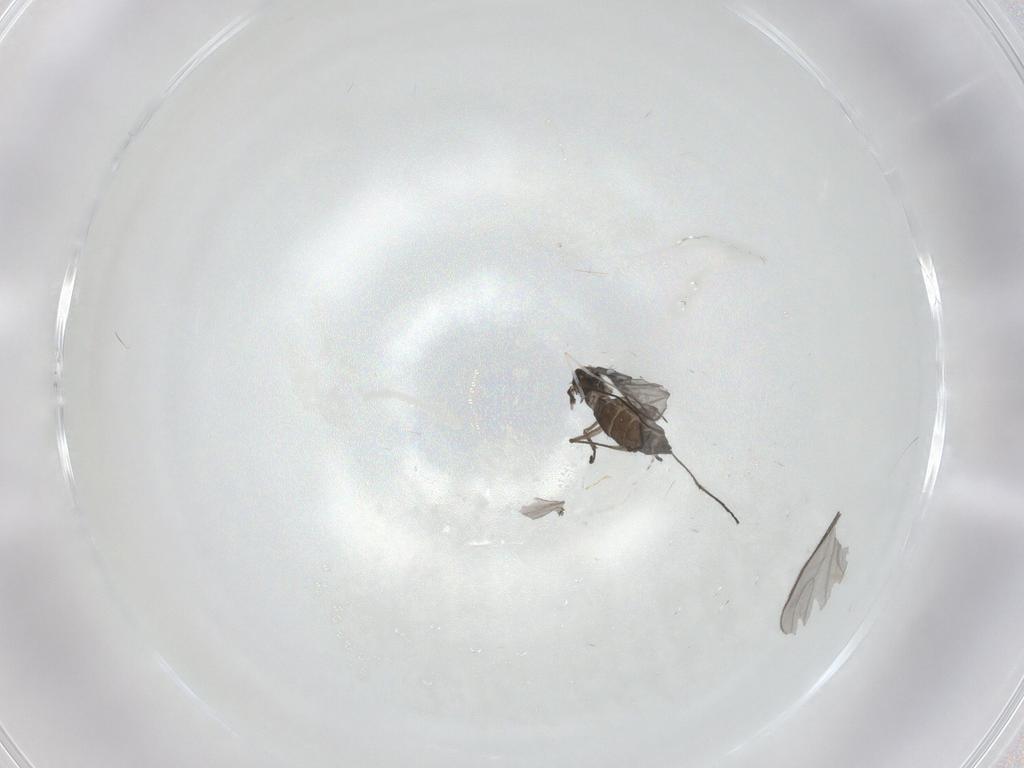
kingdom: Animalia
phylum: Arthropoda
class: Insecta
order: Diptera
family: Sciaridae
